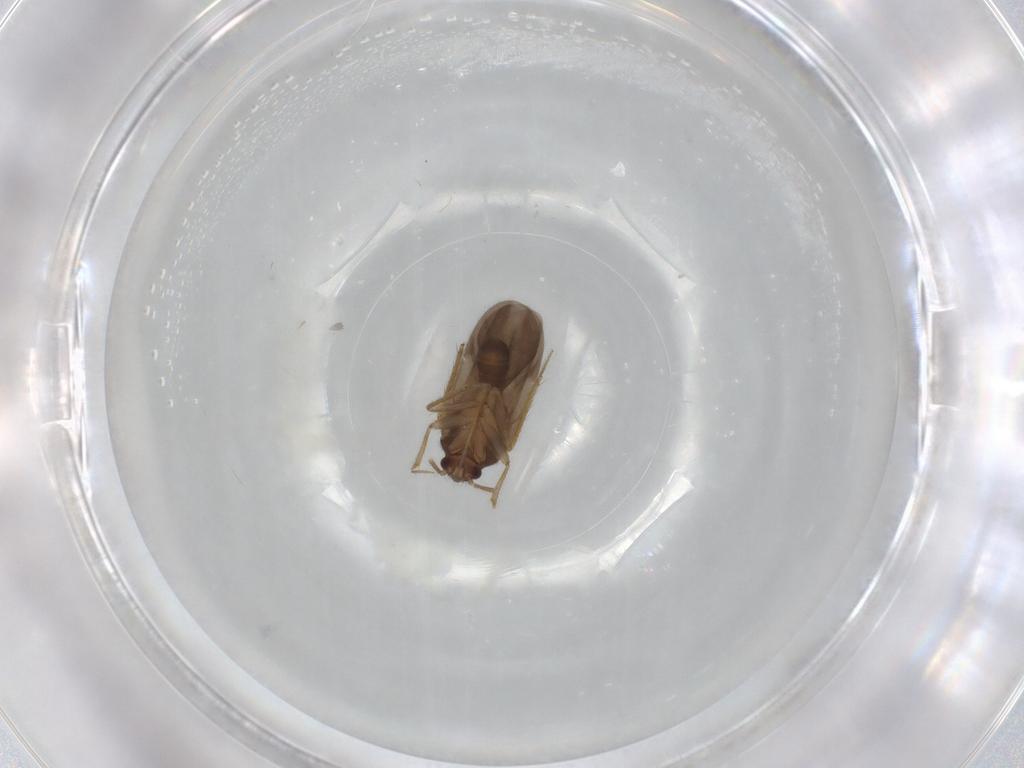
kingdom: Animalia
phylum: Arthropoda
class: Insecta
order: Hemiptera
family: Ceratocombidae
